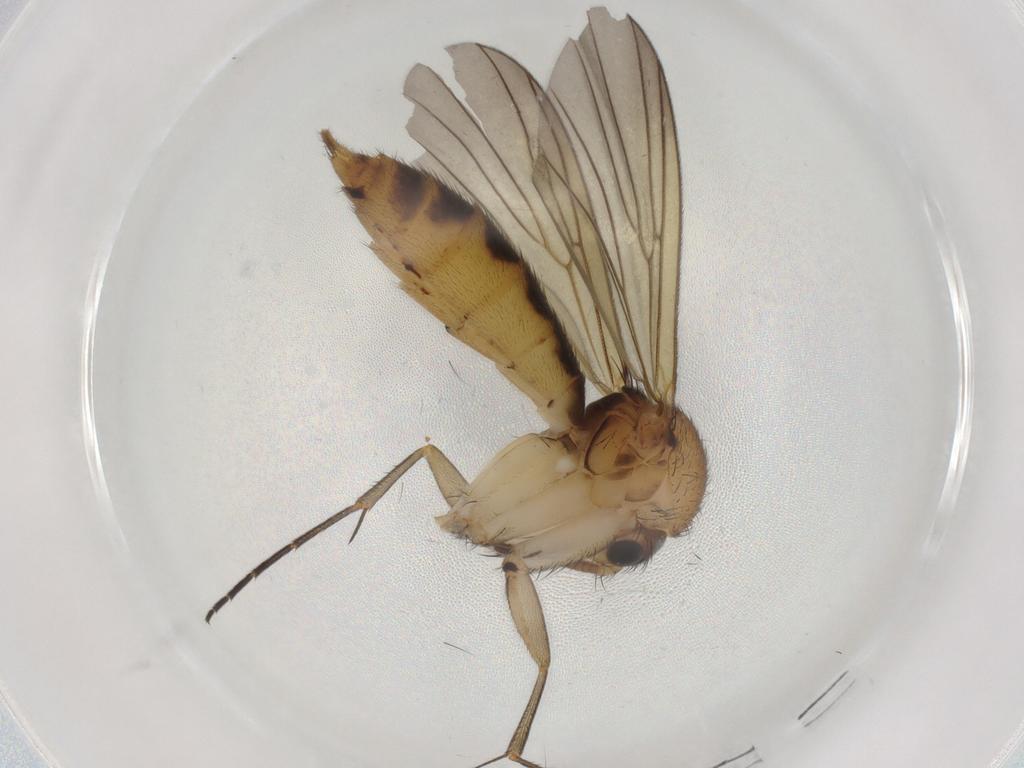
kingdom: Animalia
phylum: Arthropoda
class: Insecta
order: Diptera
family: Mycetophilidae
